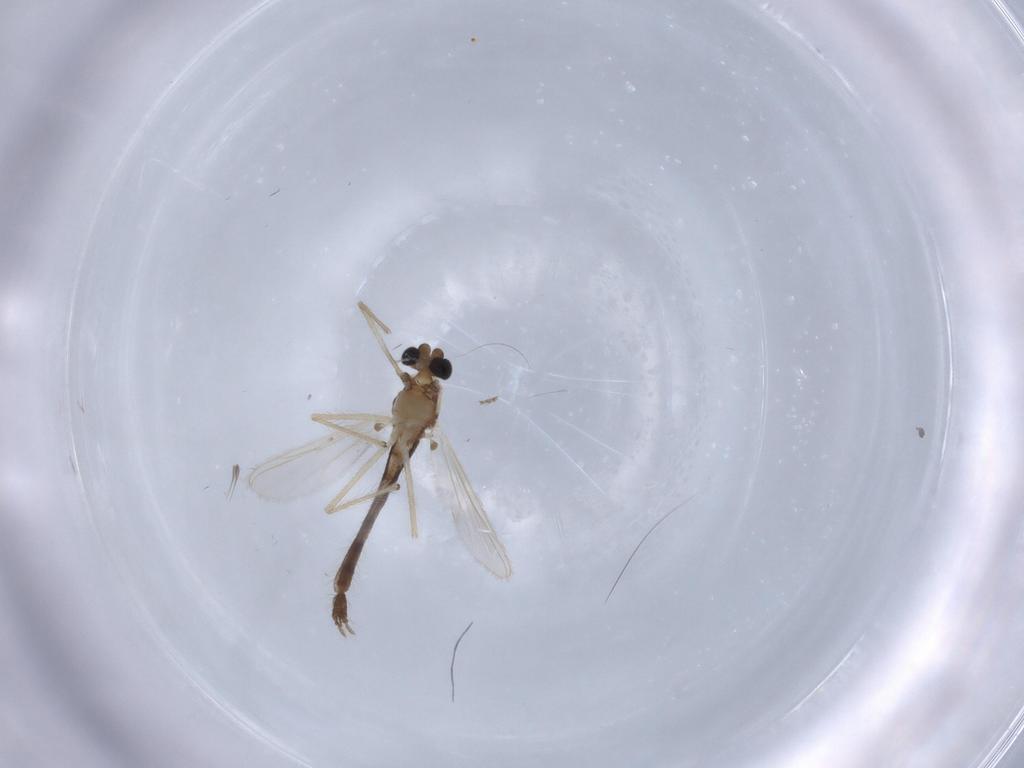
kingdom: Animalia
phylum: Arthropoda
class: Insecta
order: Diptera
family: Chironomidae
